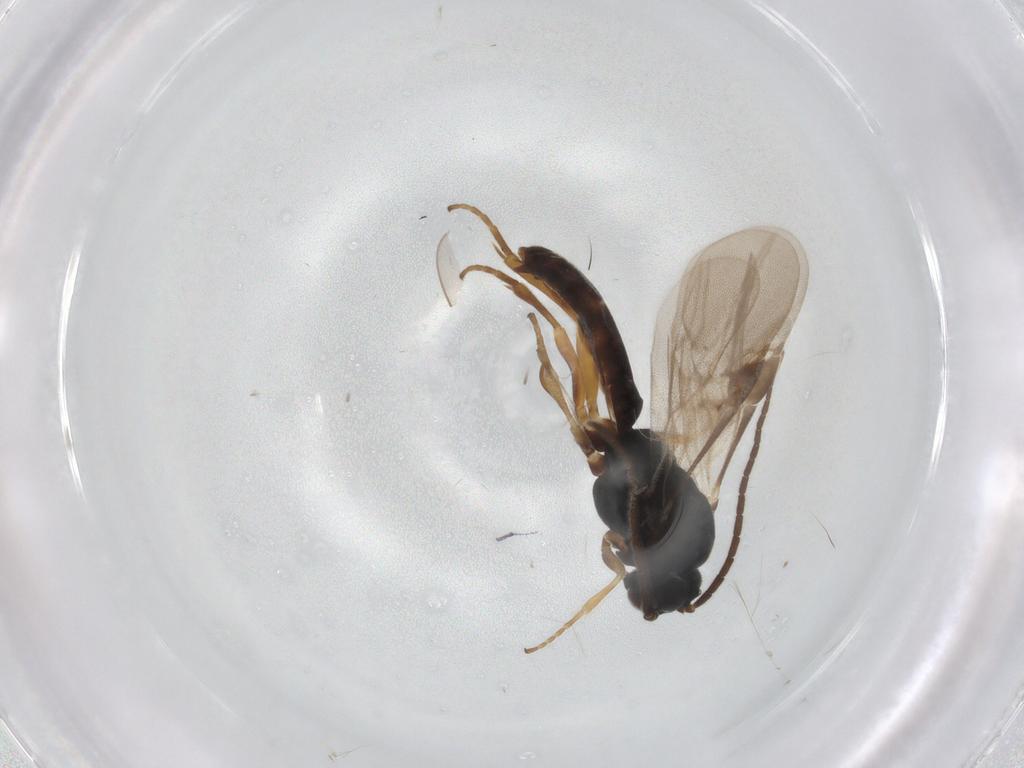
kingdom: Animalia
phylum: Arthropoda
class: Insecta
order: Hymenoptera
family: Braconidae
